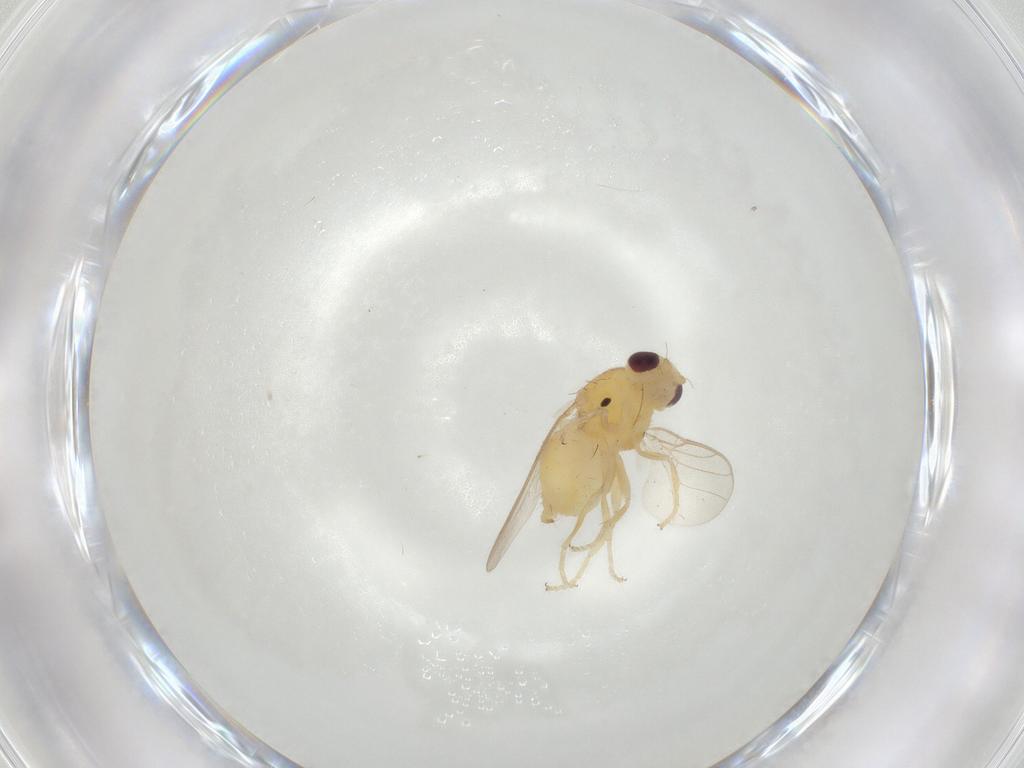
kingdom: Animalia
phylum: Arthropoda
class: Insecta
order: Diptera
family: Chloropidae
